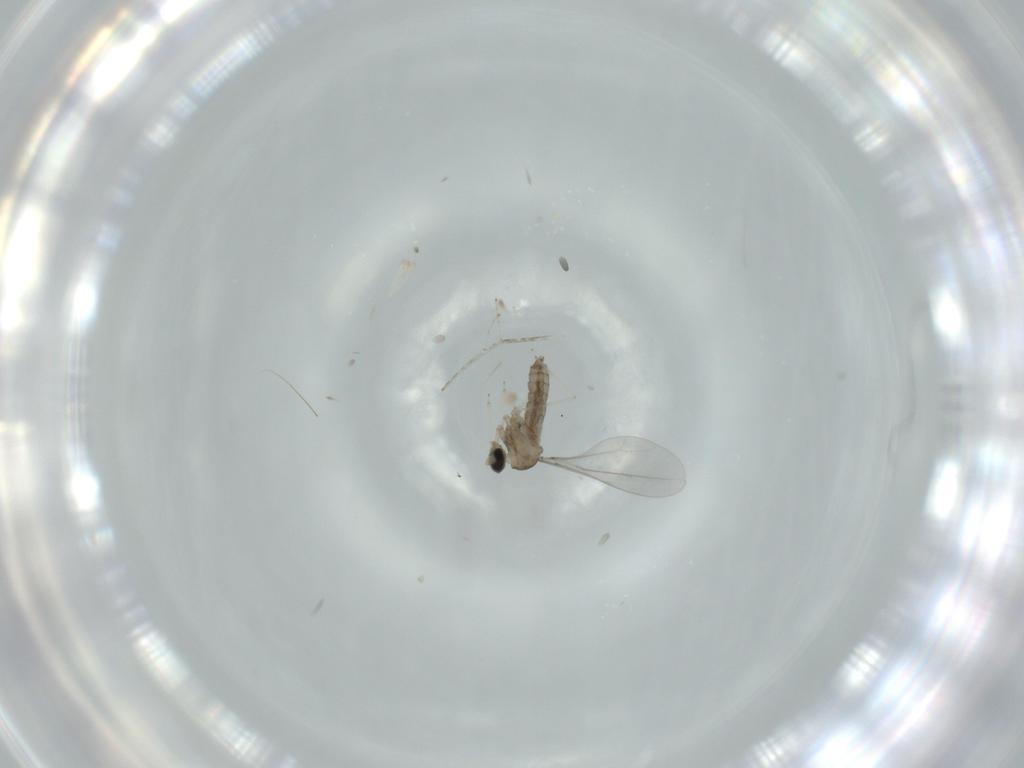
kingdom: Animalia
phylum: Arthropoda
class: Insecta
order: Diptera
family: Cecidomyiidae
